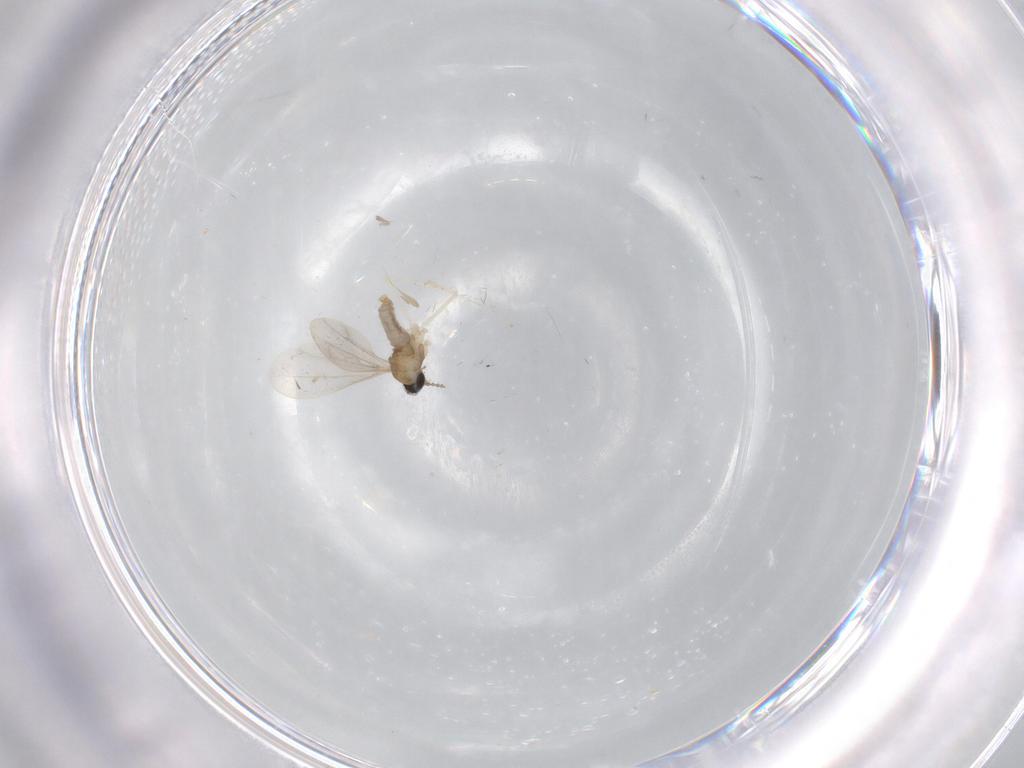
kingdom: Animalia
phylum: Arthropoda
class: Insecta
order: Diptera
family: Cecidomyiidae
